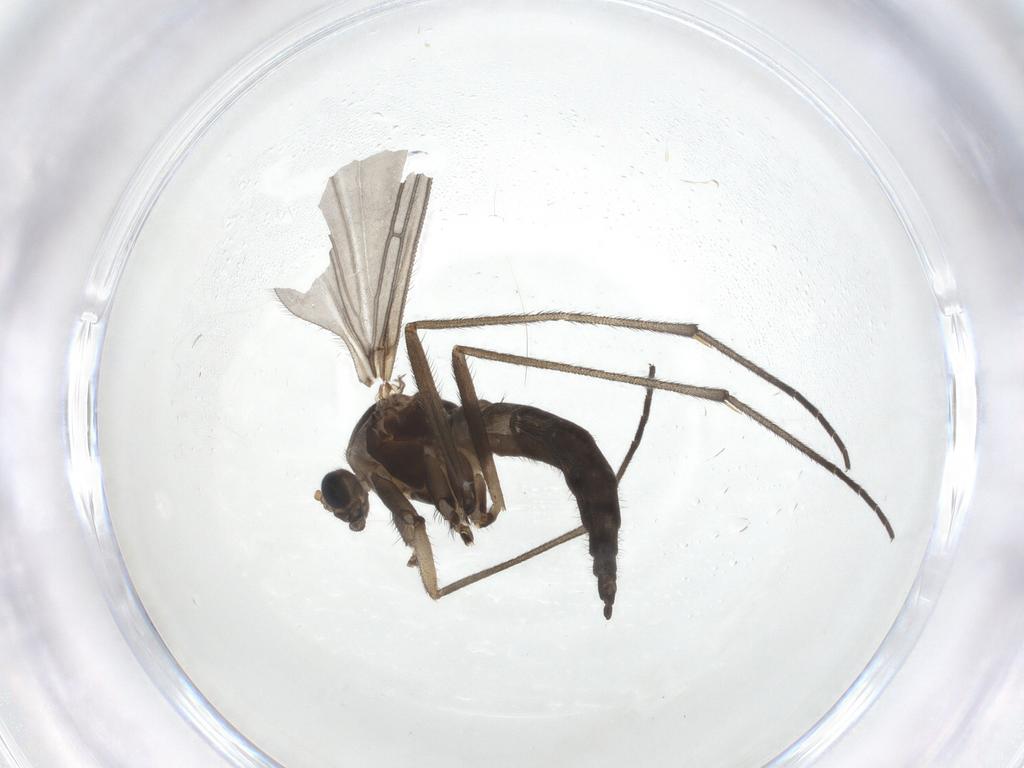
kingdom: Animalia
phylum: Arthropoda
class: Insecta
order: Diptera
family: Sciaridae
